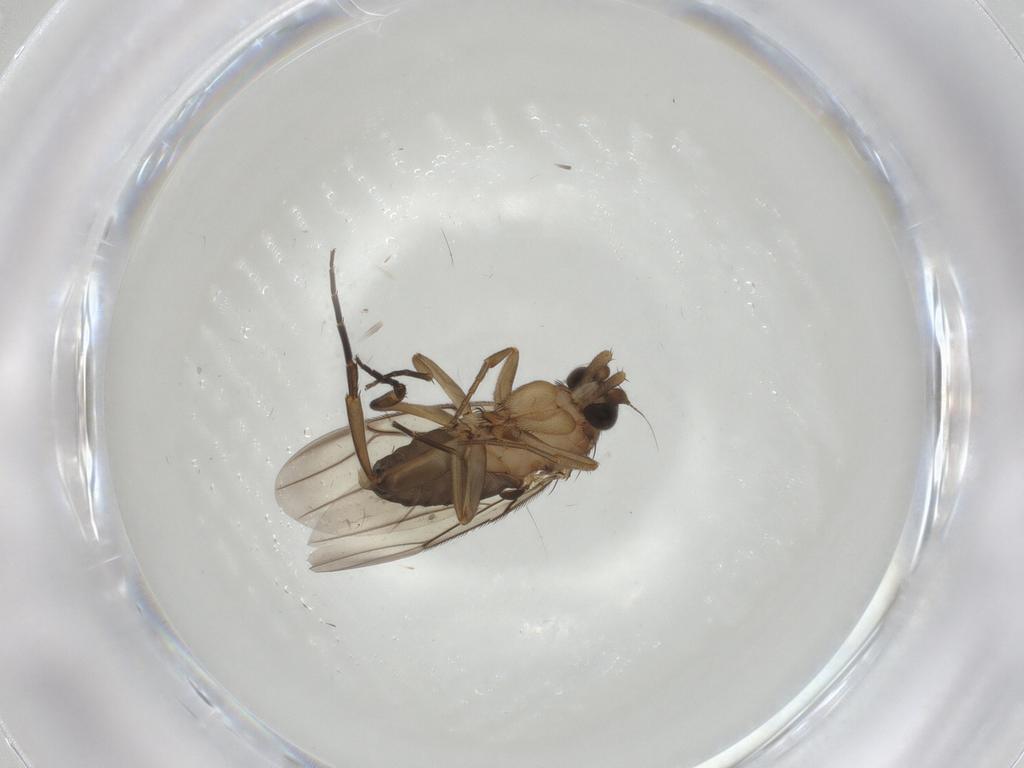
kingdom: Animalia
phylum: Arthropoda
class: Insecta
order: Diptera
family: Phoridae
